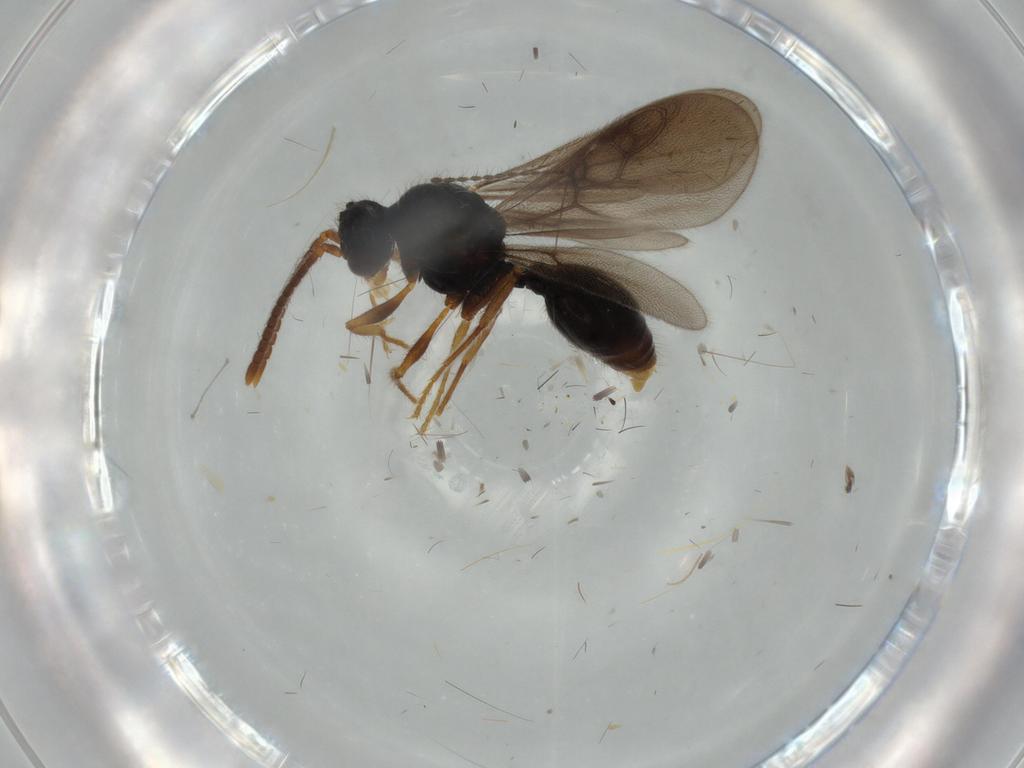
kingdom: Animalia
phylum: Arthropoda
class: Insecta
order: Hymenoptera
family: Formicidae
